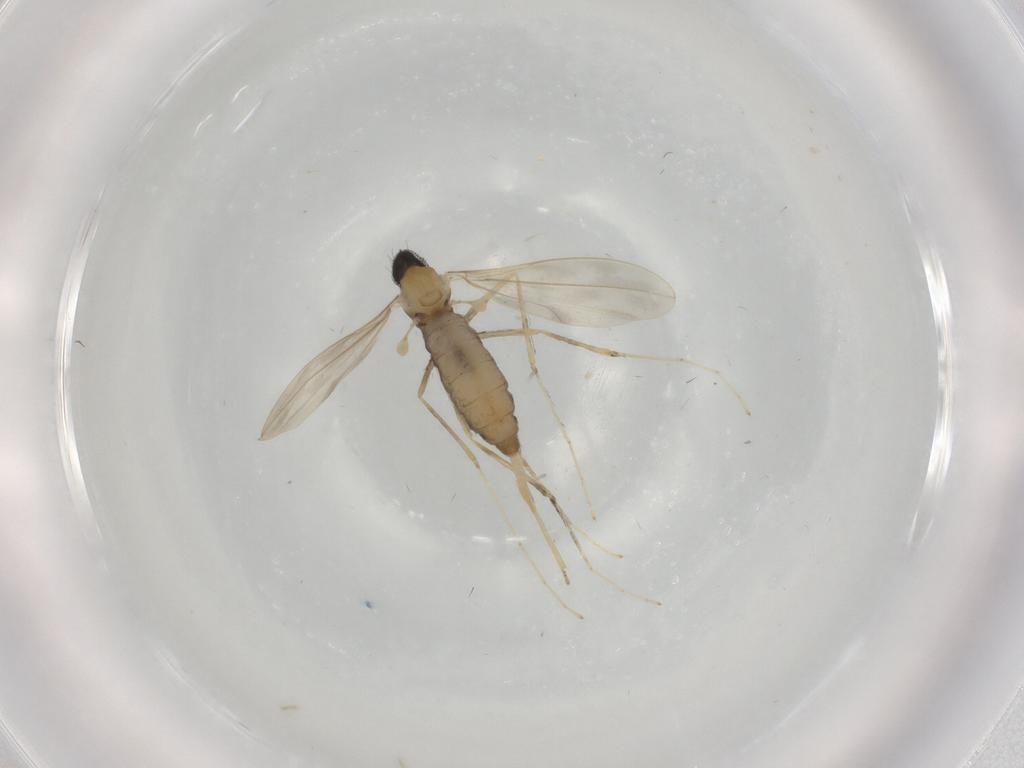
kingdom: Animalia
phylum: Arthropoda
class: Insecta
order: Diptera
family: Cecidomyiidae
